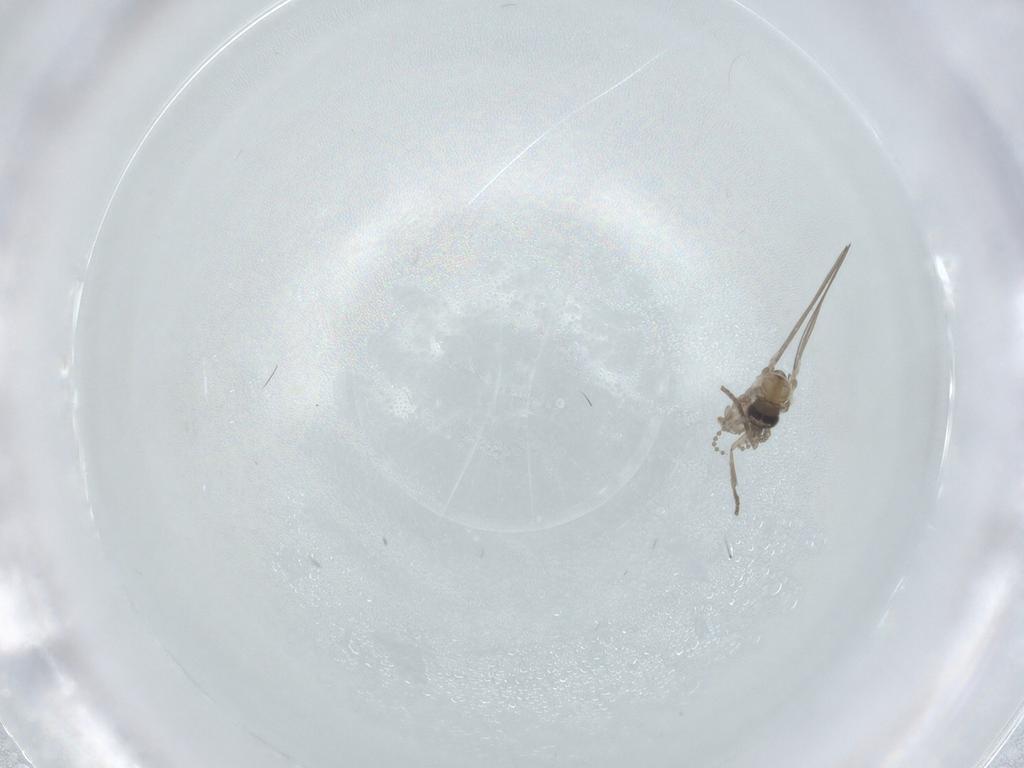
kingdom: Animalia
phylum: Arthropoda
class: Insecta
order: Diptera
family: Psychodidae
